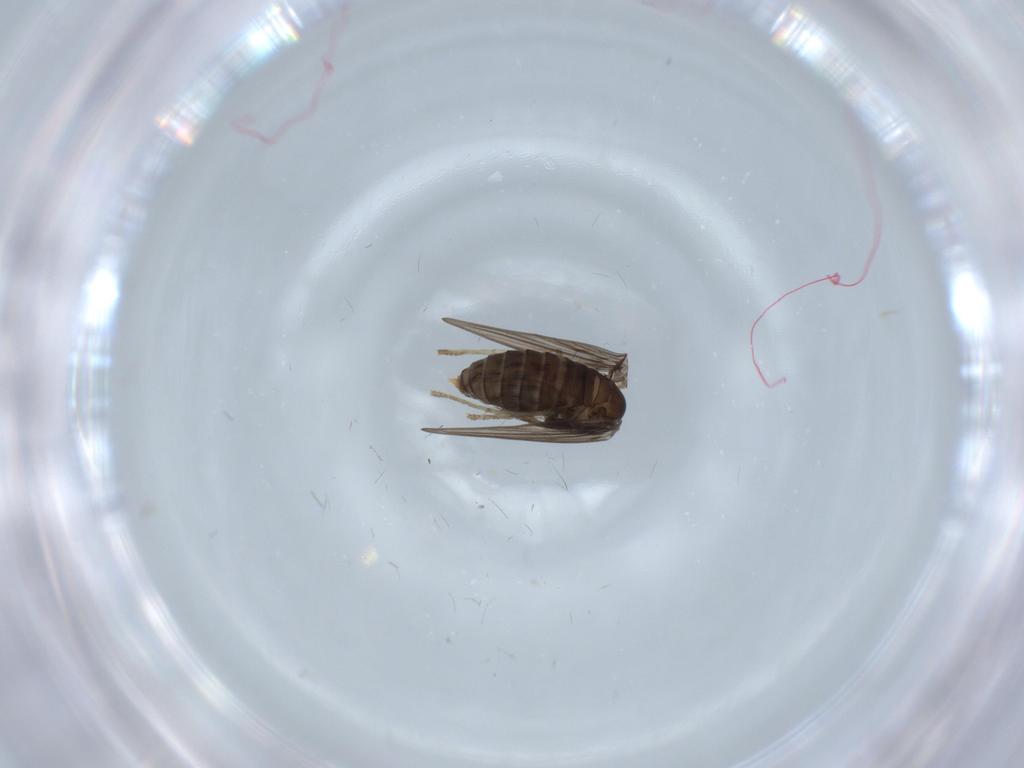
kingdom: Animalia
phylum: Arthropoda
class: Insecta
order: Diptera
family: Psychodidae
